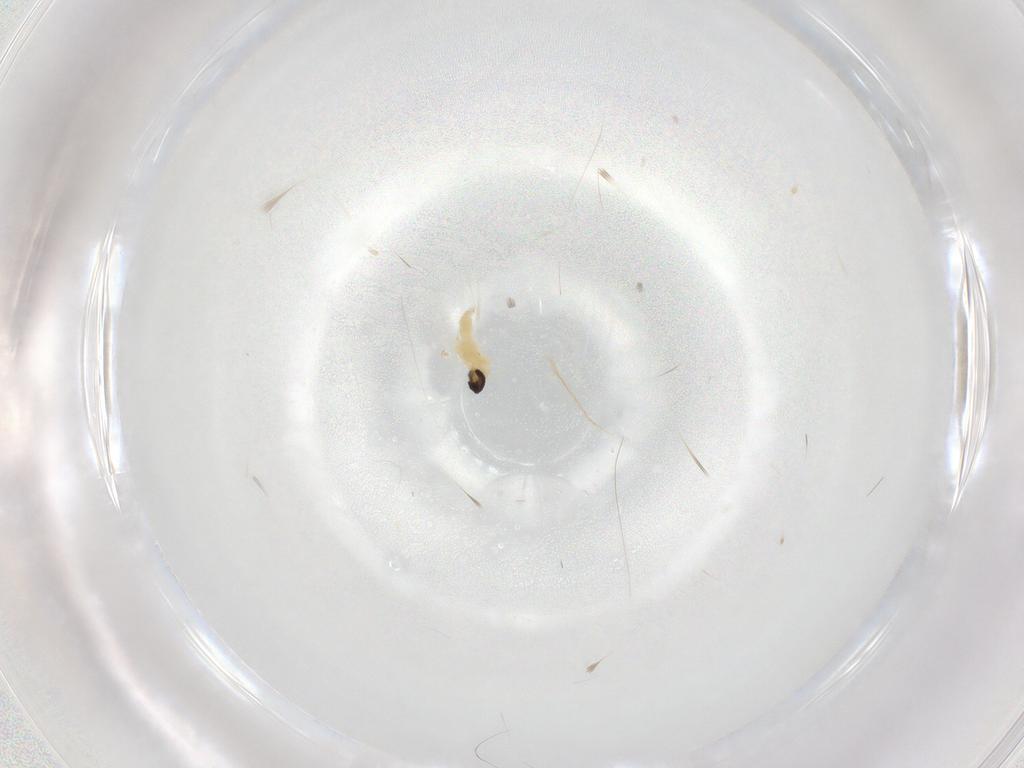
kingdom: Animalia
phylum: Arthropoda
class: Insecta
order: Diptera
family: Cecidomyiidae
